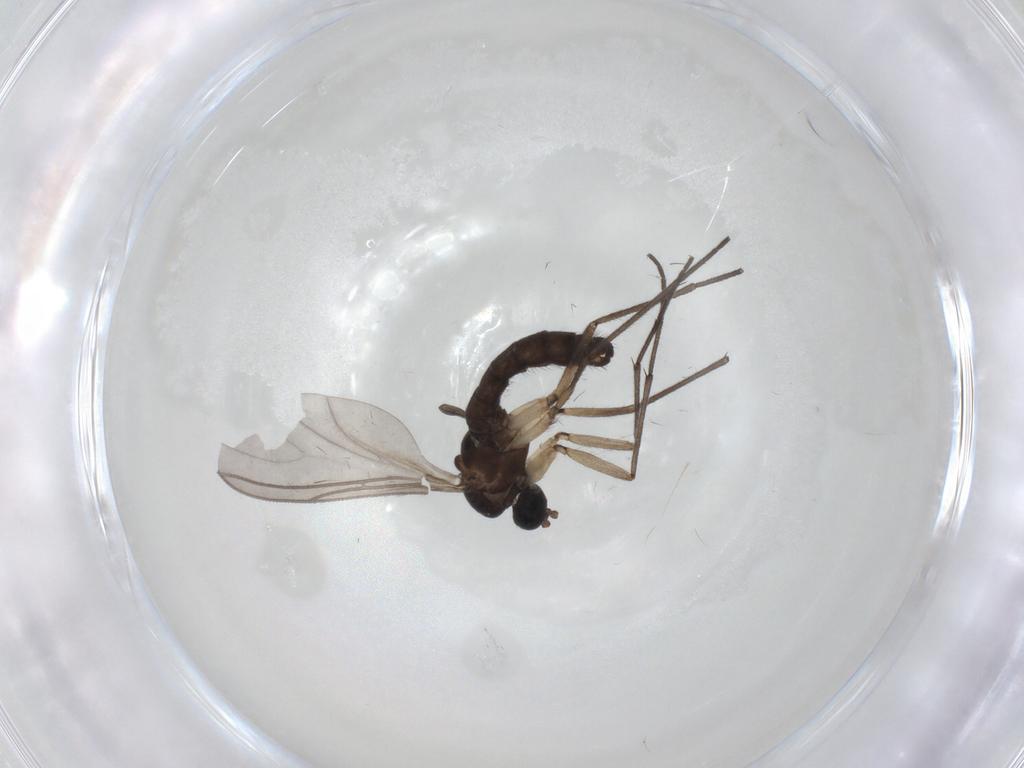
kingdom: Animalia
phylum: Arthropoda
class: Insecta
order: Diptera
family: Sciaridae
